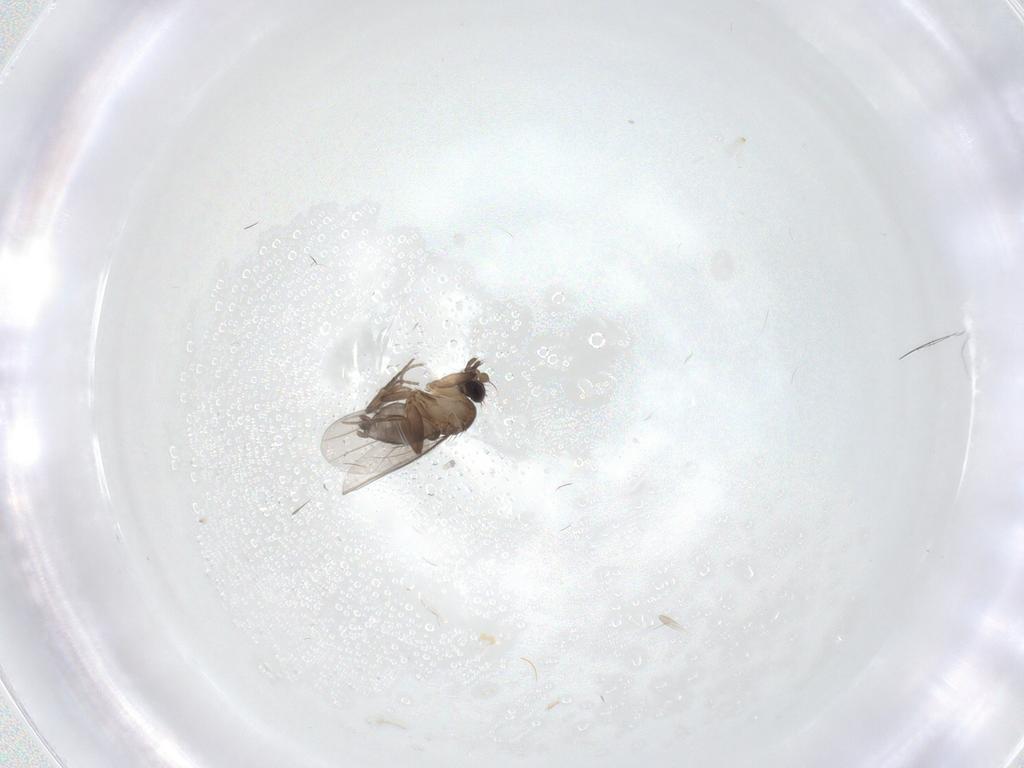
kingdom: Animalia
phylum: Arthropoda
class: Insecta
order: Diptera
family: Phoridae
